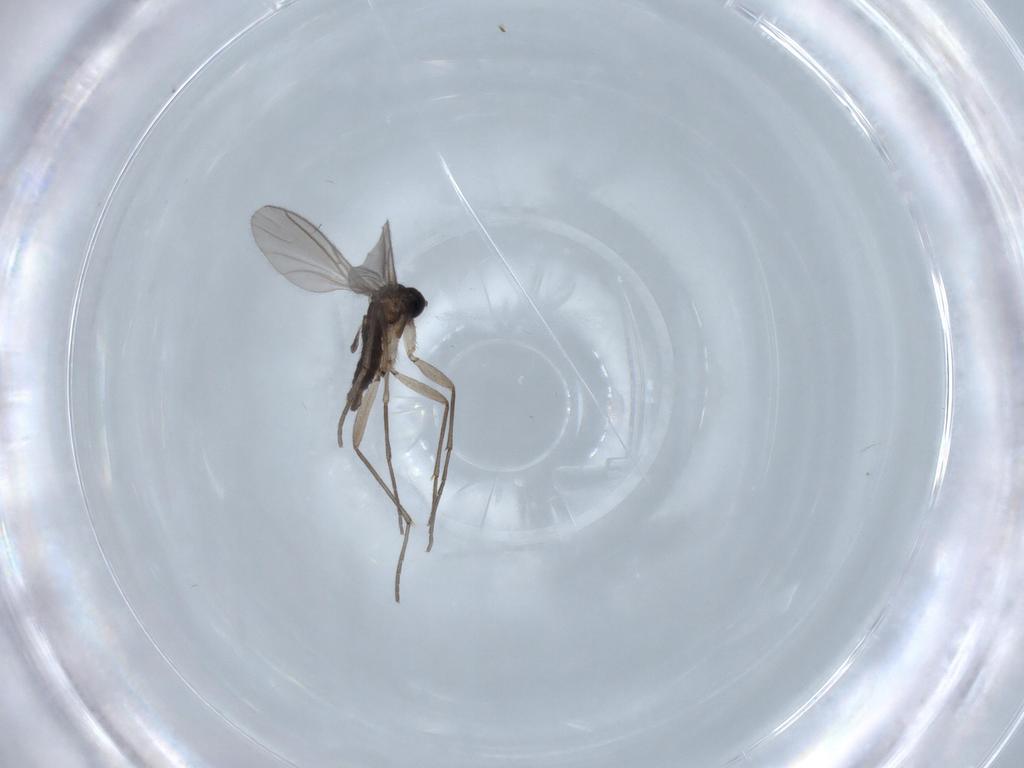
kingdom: Animalia
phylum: Arthropoda
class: Insecta
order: Diptera
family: Sciaridae
